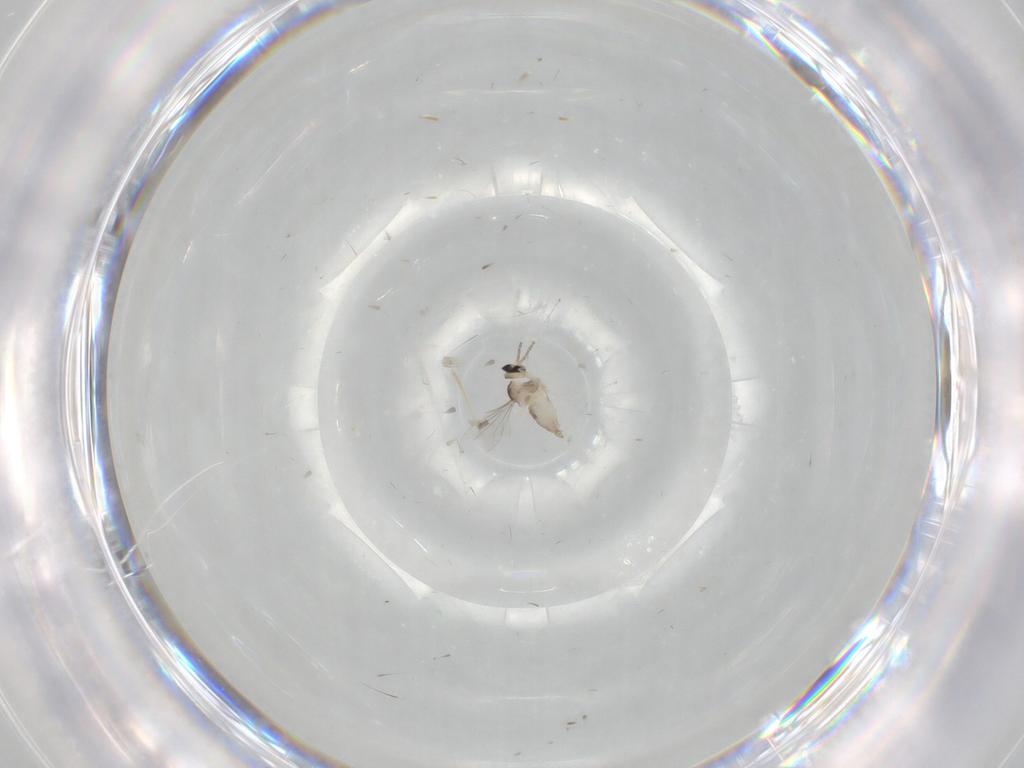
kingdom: Animalia
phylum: Arthropoda
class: Insecta
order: Diptera
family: Cecidomyiidae
